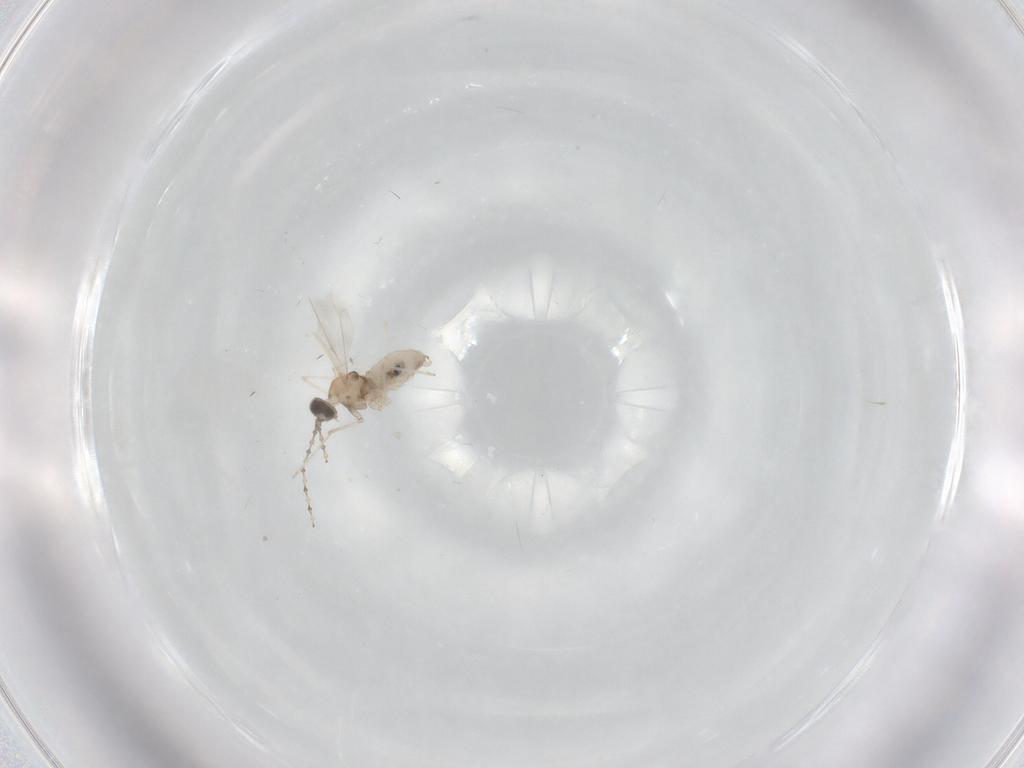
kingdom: Animalia
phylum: Arthropoda
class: Insecta
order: Diptera
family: Cecidomyiidae
